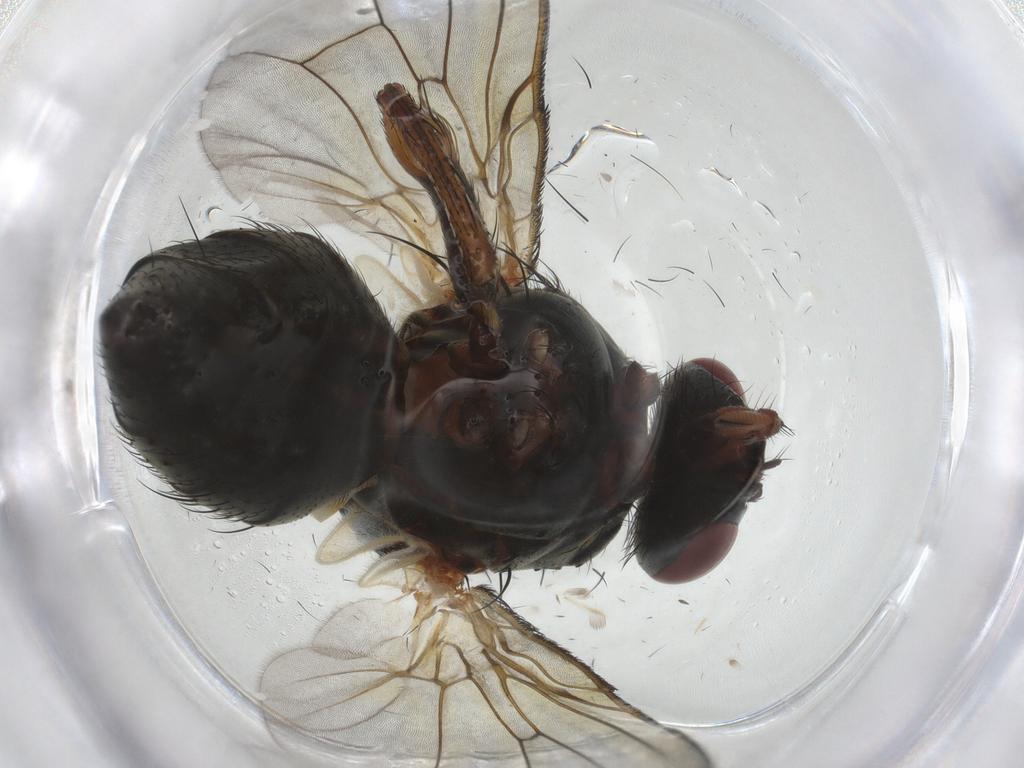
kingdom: Animalia
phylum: Arthropoda
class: Insecta
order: Diptera
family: Muscidae
